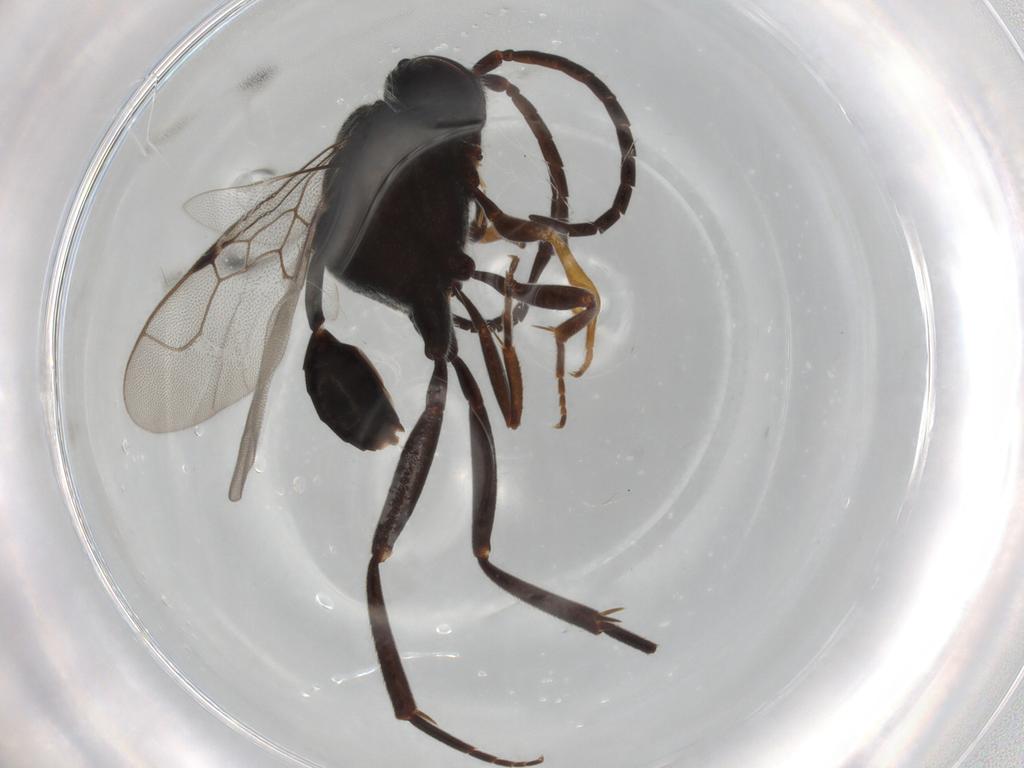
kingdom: Animalia
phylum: Arthropoda
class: Insecta
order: Hymenoptera
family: Evaniidae
